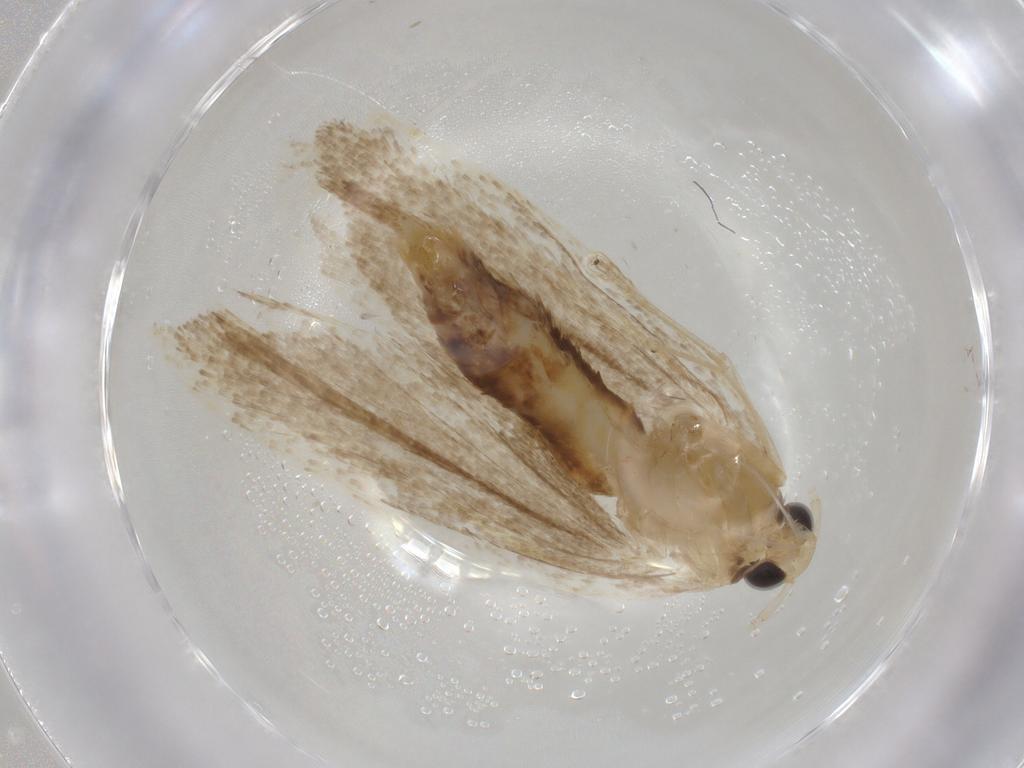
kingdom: Animalia
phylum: Arthropoda
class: Insecta
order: Lepidoptera
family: Lecithoceridae
